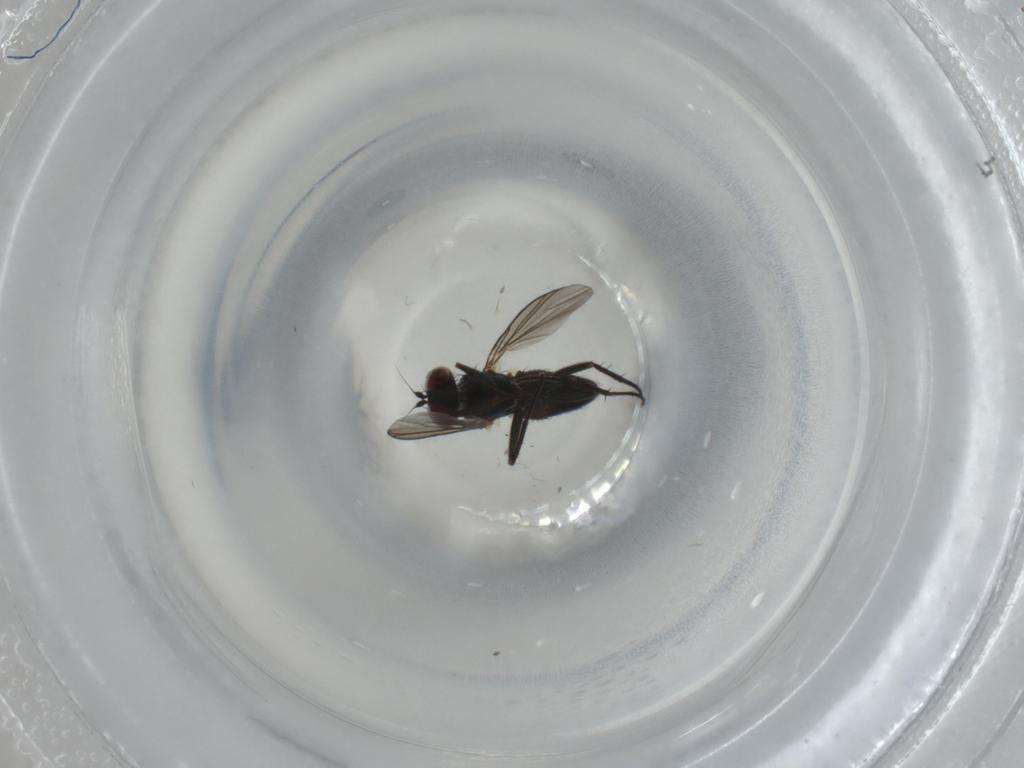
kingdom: Animalia
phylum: Arthropoda
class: Insecta
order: Diptera
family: Dolichopodidae
